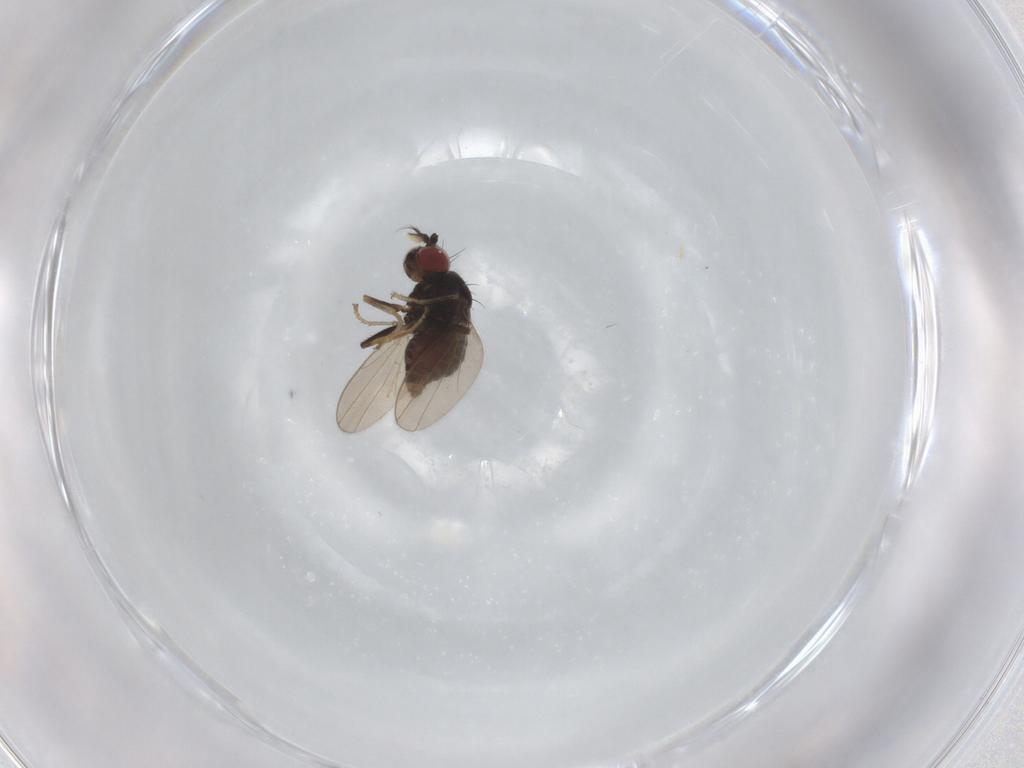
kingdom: Animalia
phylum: Arthropoda
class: Insecta
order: Diptera
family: Ephydridae
